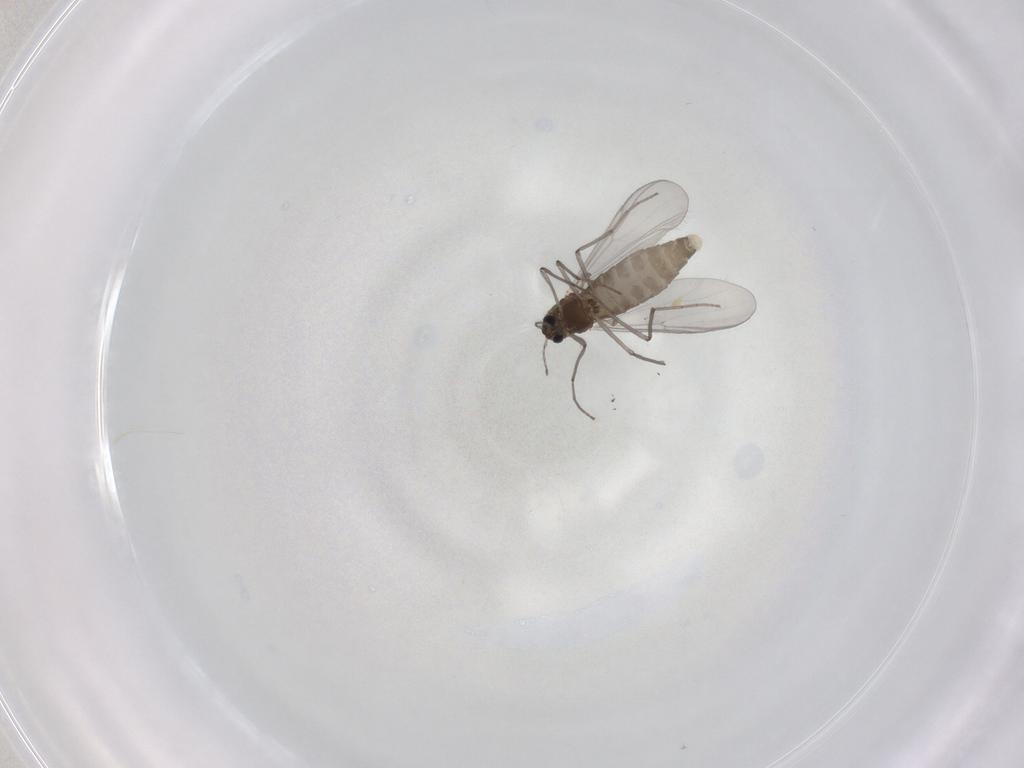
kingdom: Animalia
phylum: Arthropoda
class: Insecta
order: Diptera
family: Chironomidae
